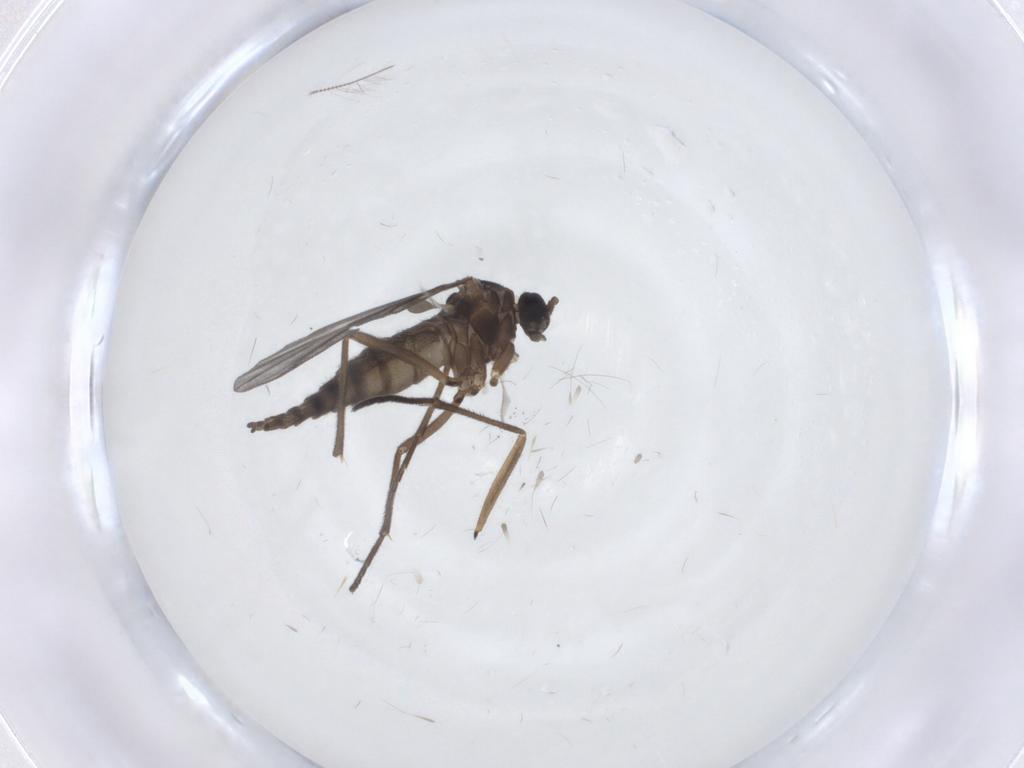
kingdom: Animalia
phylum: Arthropoda
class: Insecta
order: Diptera
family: Sciaridae
